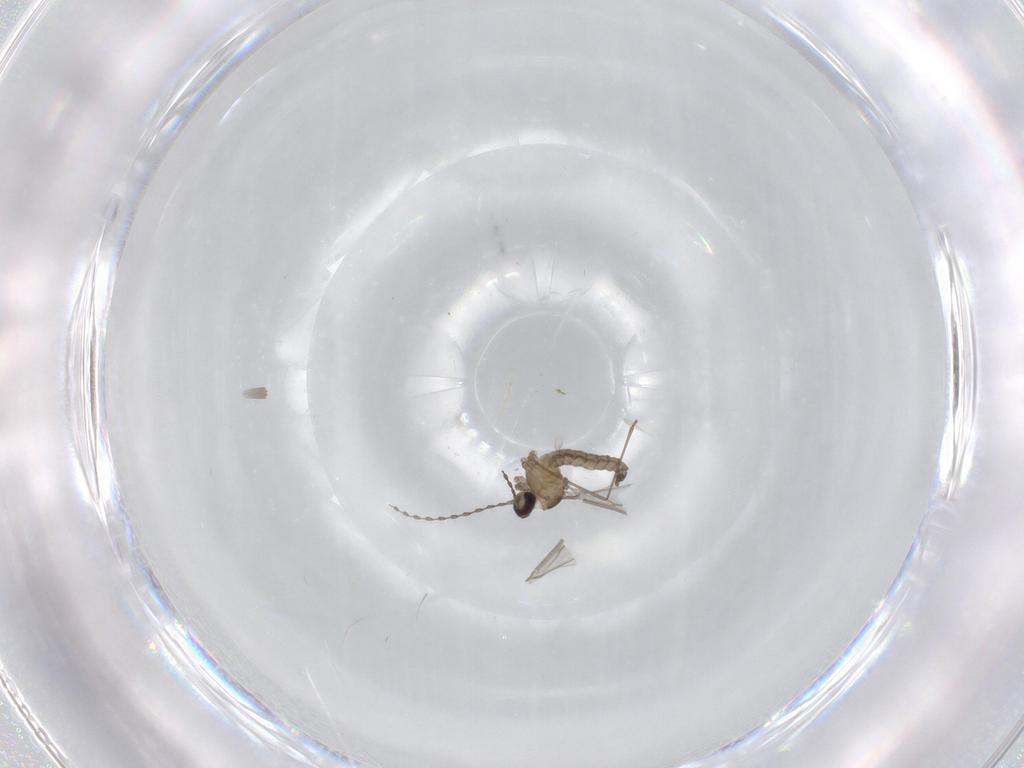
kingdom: Animalia
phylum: Arthropoda
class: Insecta
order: Diptera
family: Cecidomyiidae
